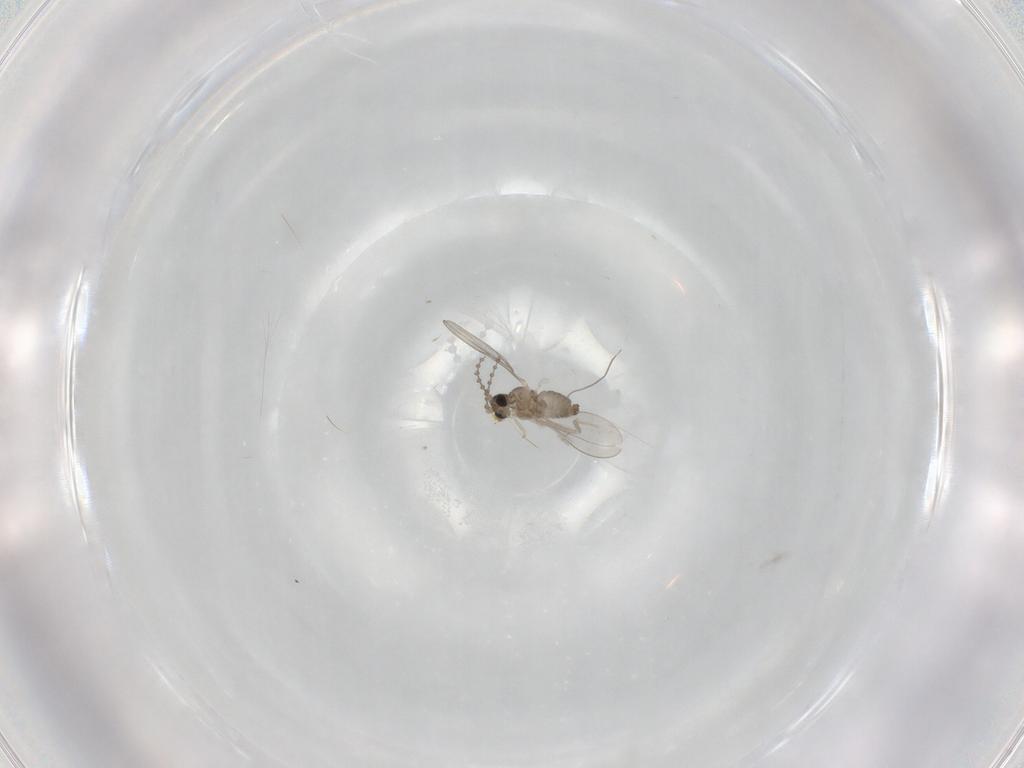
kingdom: Animalia
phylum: Arthropoda
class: Insecta
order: Diptera
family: Cecidomyiidae
